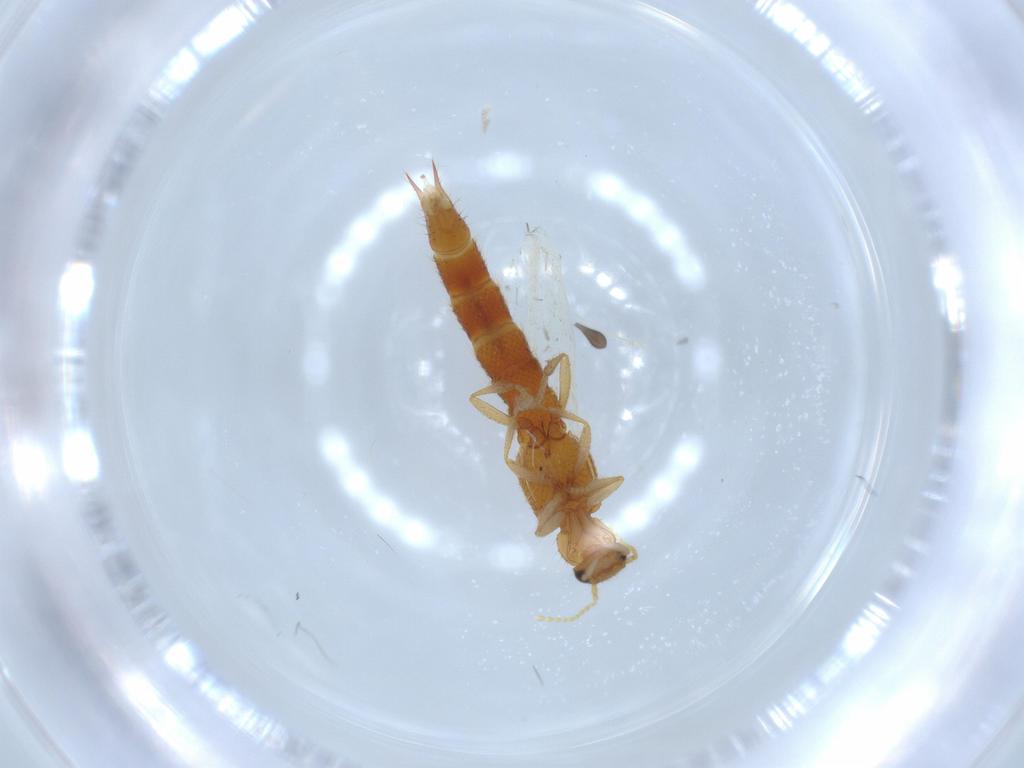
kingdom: Animalia
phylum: Arthropoda
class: Insecta
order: Coleoptera
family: Staphylinidae
